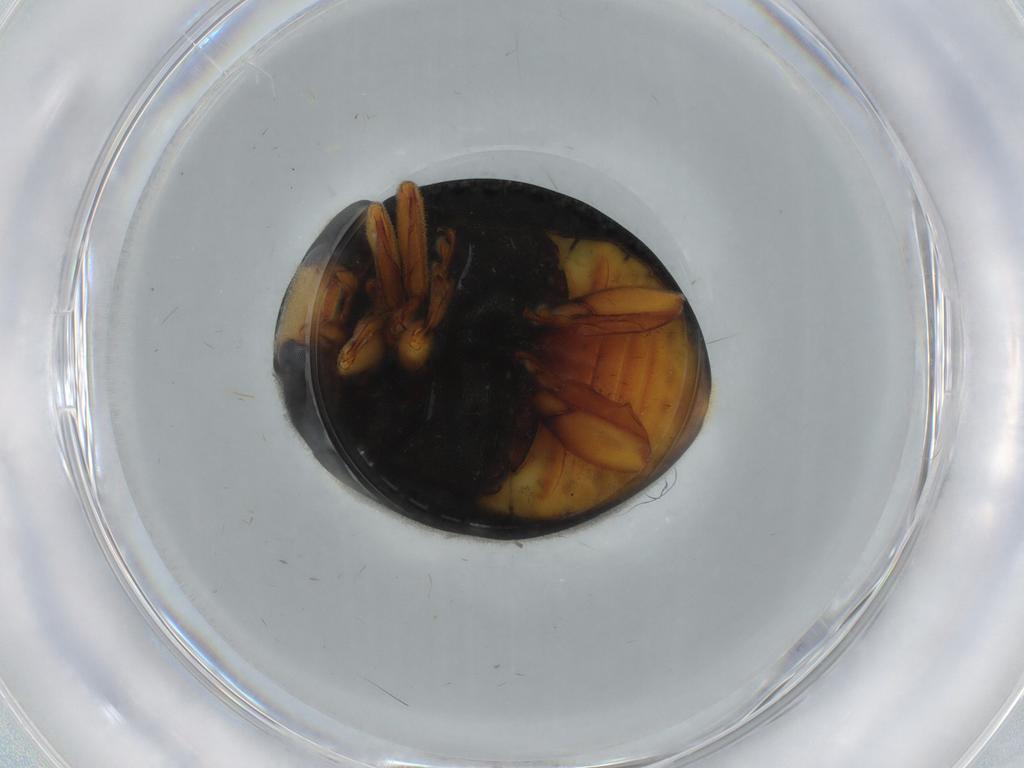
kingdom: Animalia
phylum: Arthropoda
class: Insecta
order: Coleoptera
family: Coccinellidae
